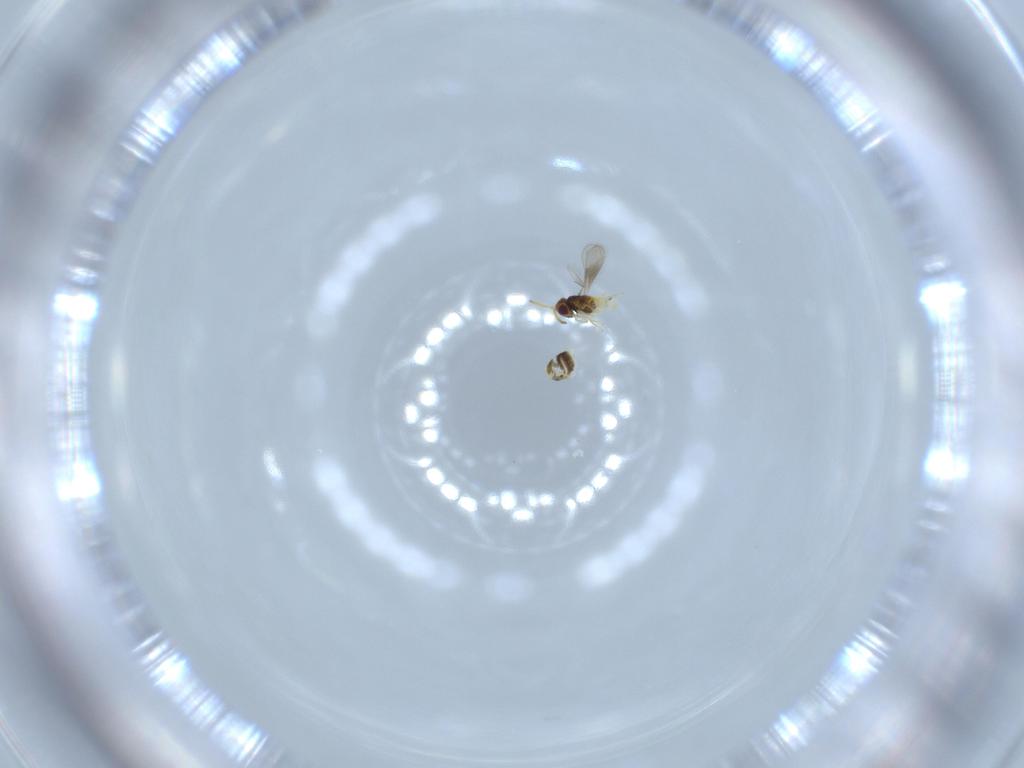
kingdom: Animalia
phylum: Arthropoda
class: Insecta
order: Hymenoptera
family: Aphelinidae
